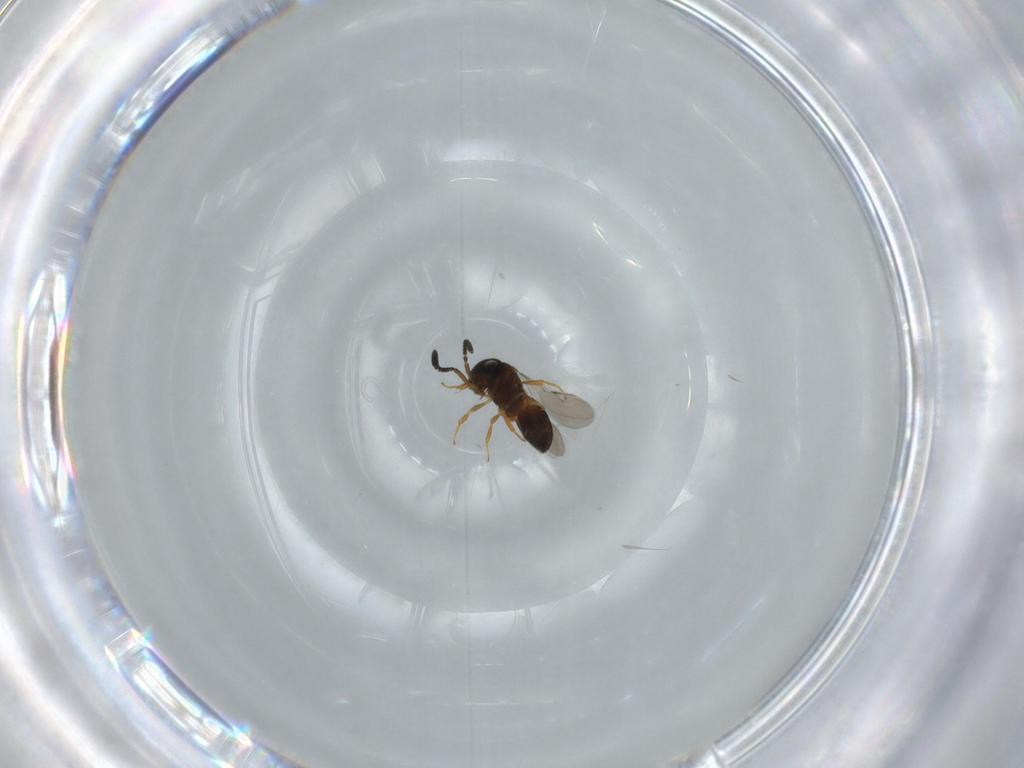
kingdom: Animalia
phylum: Arthropoda
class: Insecta
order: Hymenoptera
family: Scelionidae
